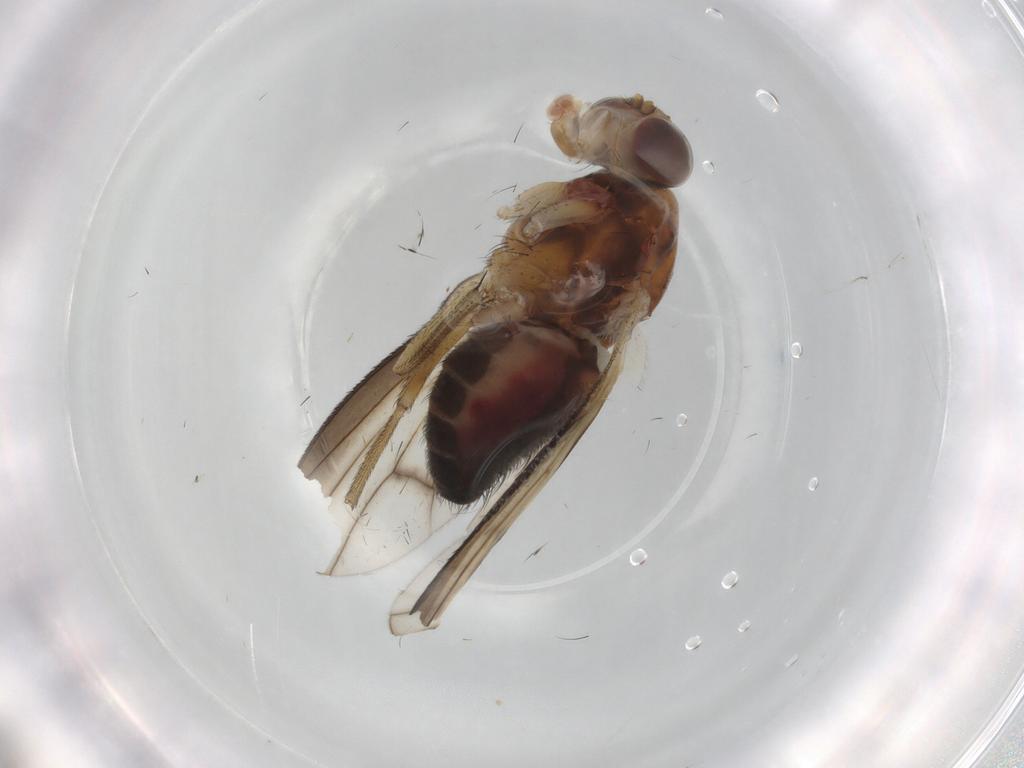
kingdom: Animalia
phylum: Arthropoda
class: Insecta
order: Diptera
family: Heleomyzidae
